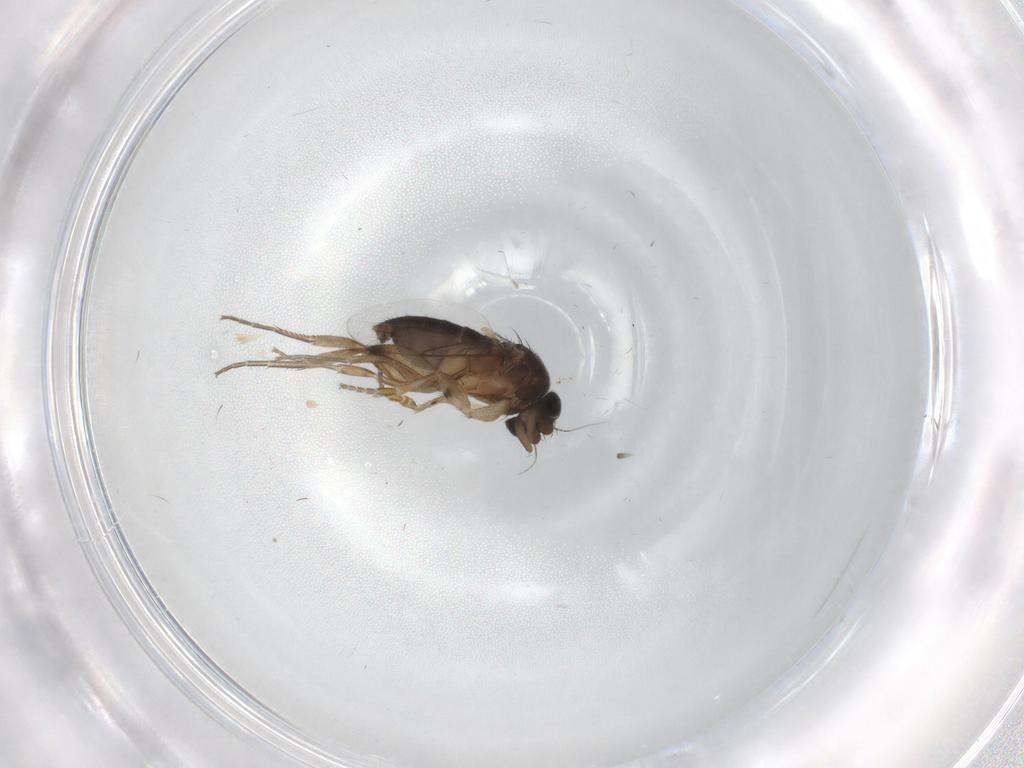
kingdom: Animalia
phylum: Arthropoda
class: Insecta
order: Diptera
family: Phoridae
